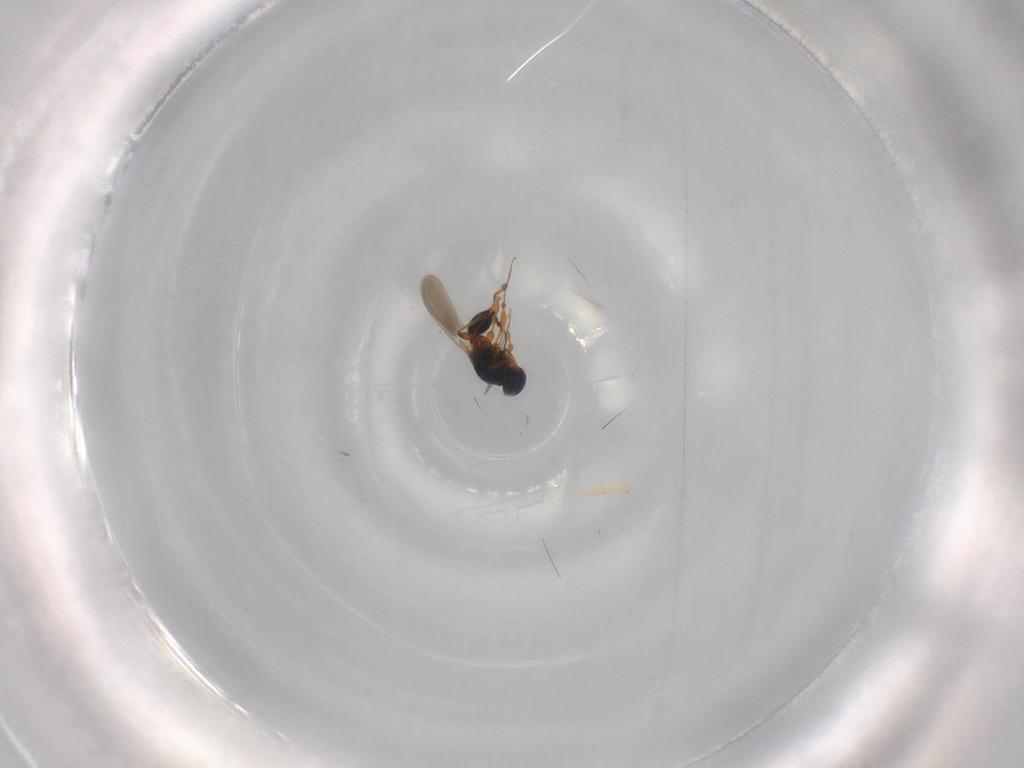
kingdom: Animalia
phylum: Arthropoda
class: Insecta
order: Hymenoptera
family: Platygastridae
